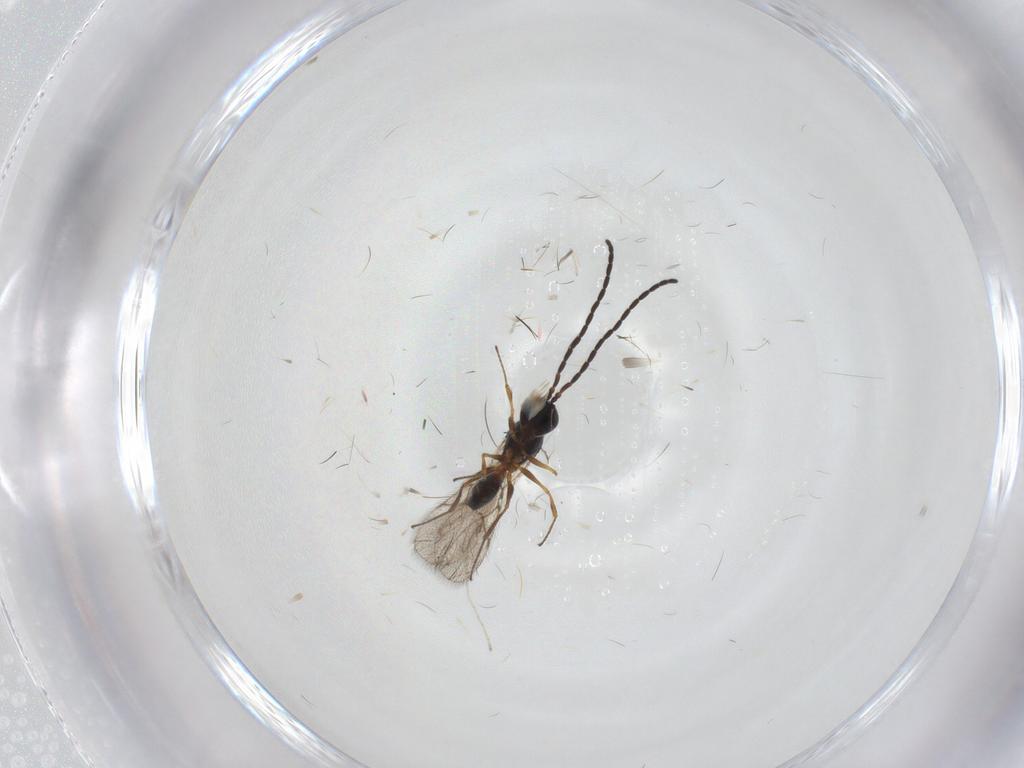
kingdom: Animalia
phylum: Arthropoda
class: Insecta
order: Hymenoptera
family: Figitidae
